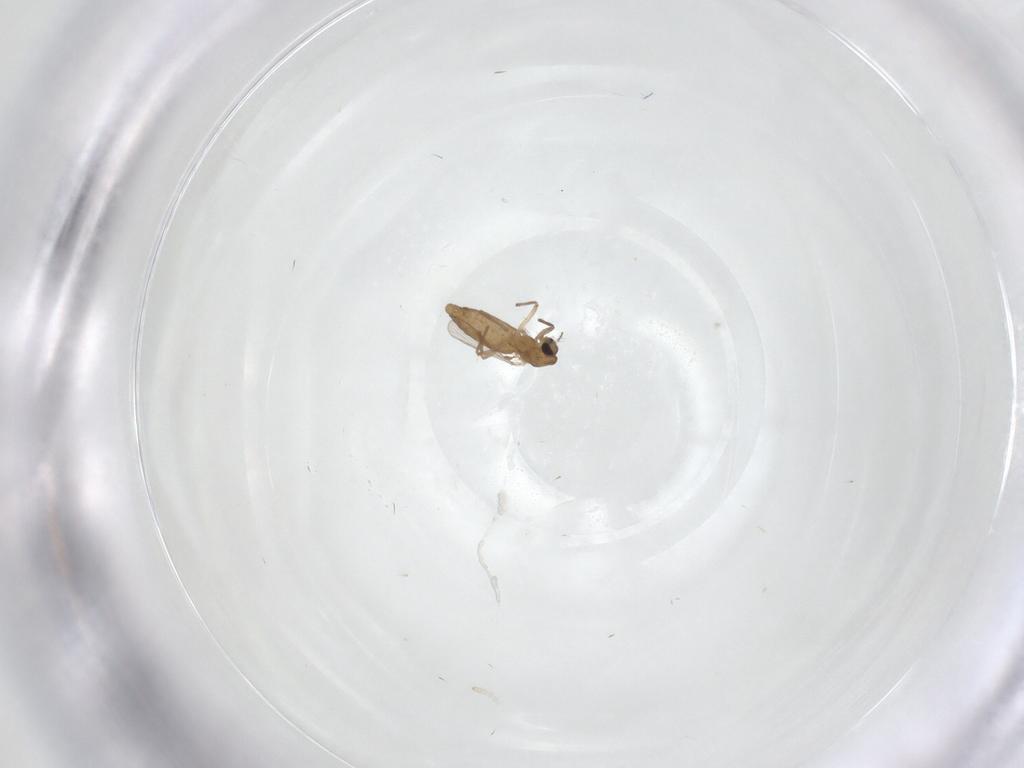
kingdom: Animalia
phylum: Arthropoda
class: Insecta
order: Diptera
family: Chironomidae
